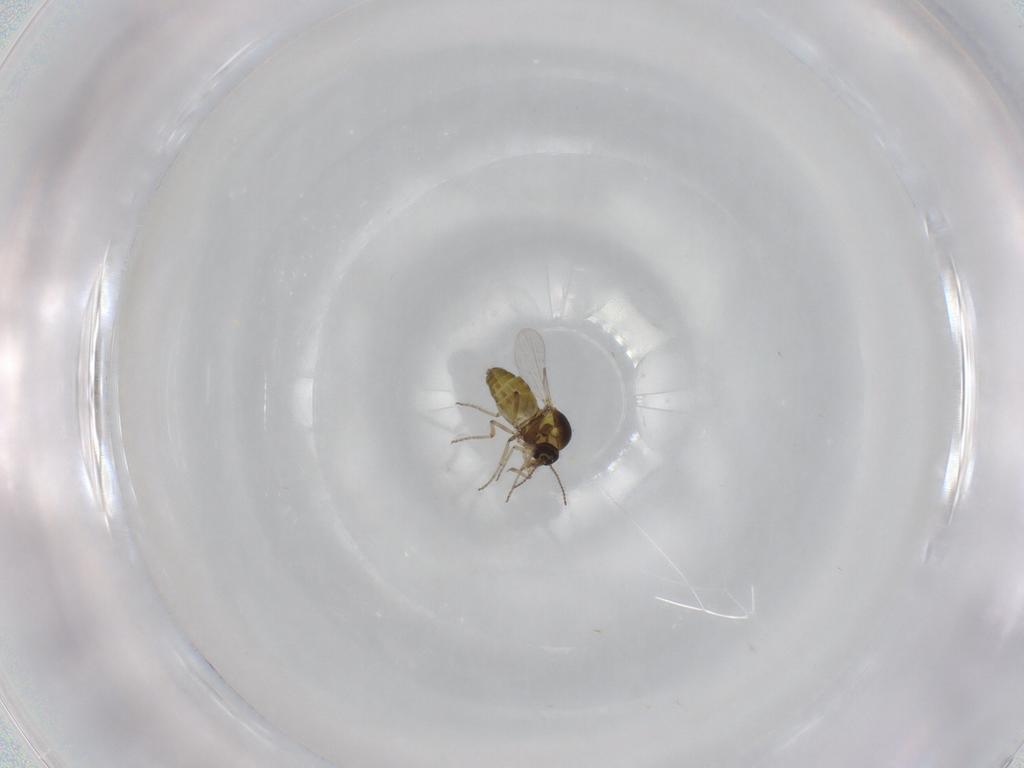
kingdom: Animalia
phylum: Arthropoda
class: Insecta
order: Diptera
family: Ceratopogonidae
